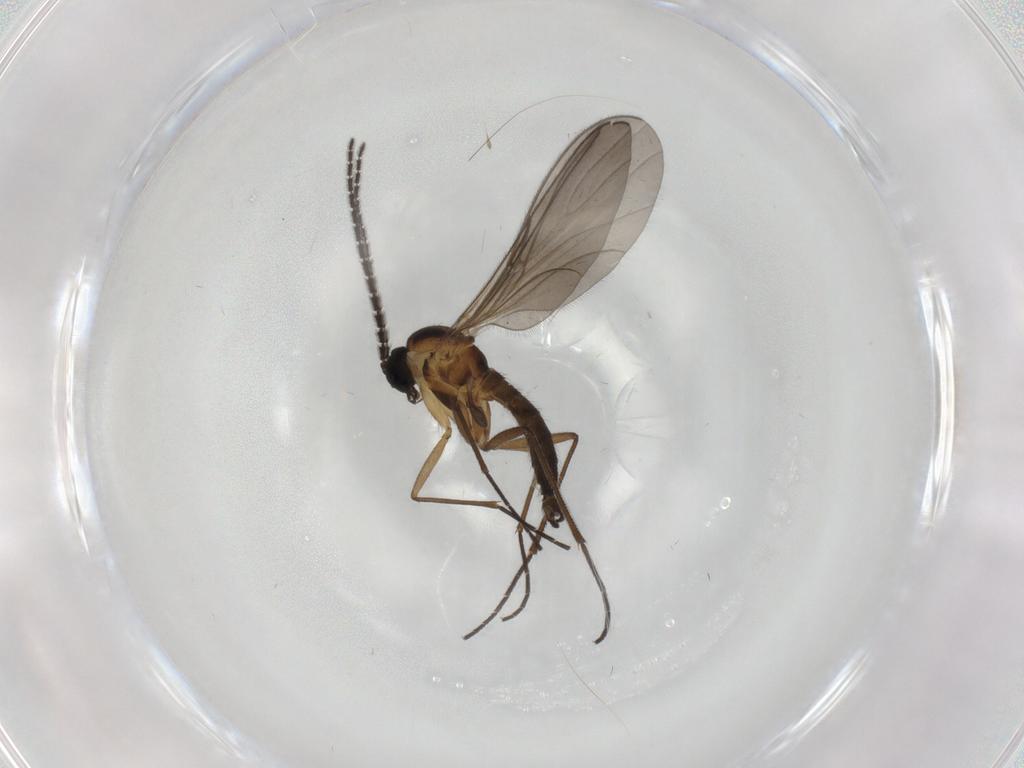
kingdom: Animalia
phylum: Arthropoda
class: Insecta
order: Diptera
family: Sciaridae
